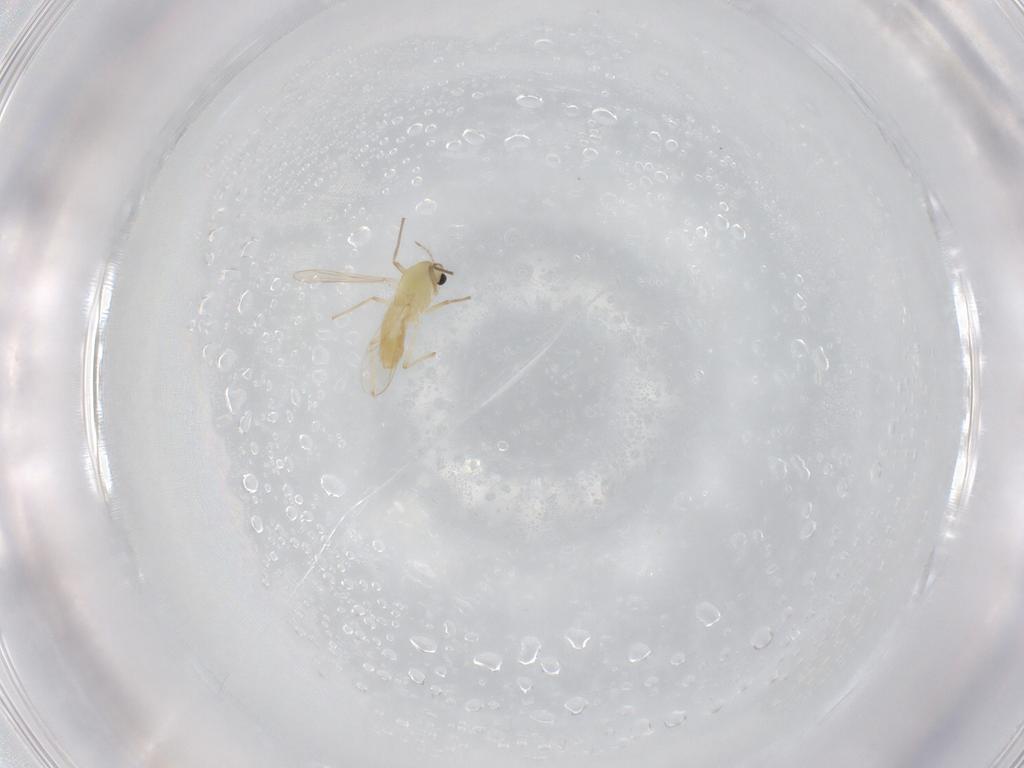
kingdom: Animalia
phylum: Arthropoda
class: Insecta
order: Diptera
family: Chironomidae
